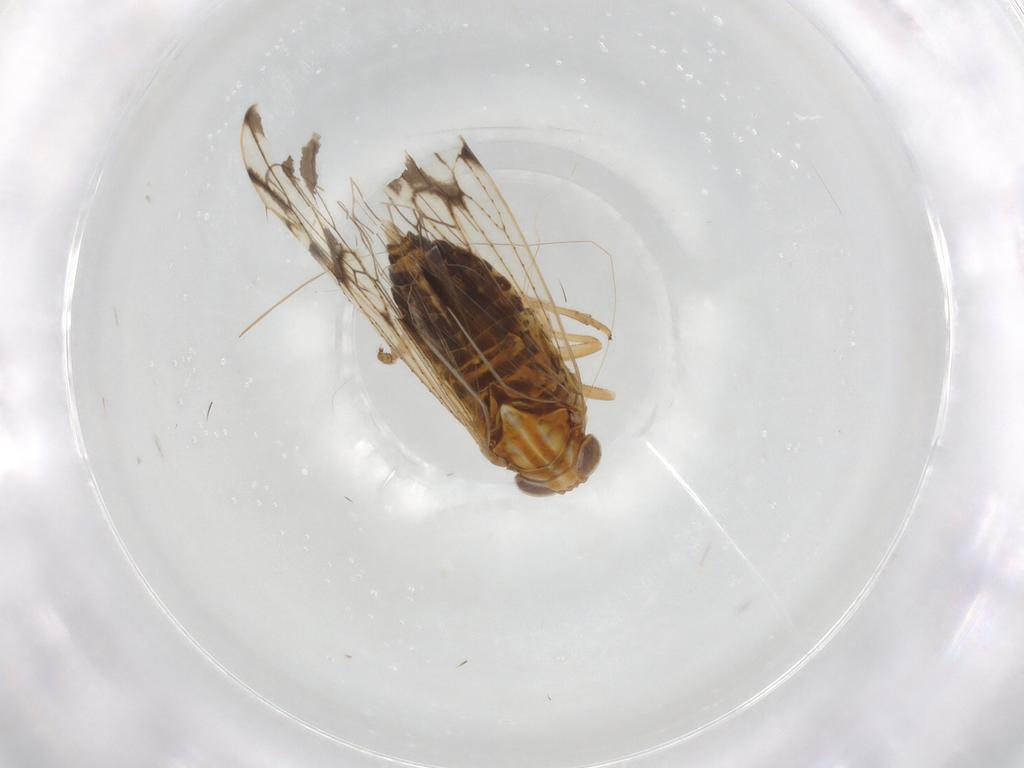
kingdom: Animalia
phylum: Arthropoda
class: Insecta
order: Hemiptera
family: Delphacidae
